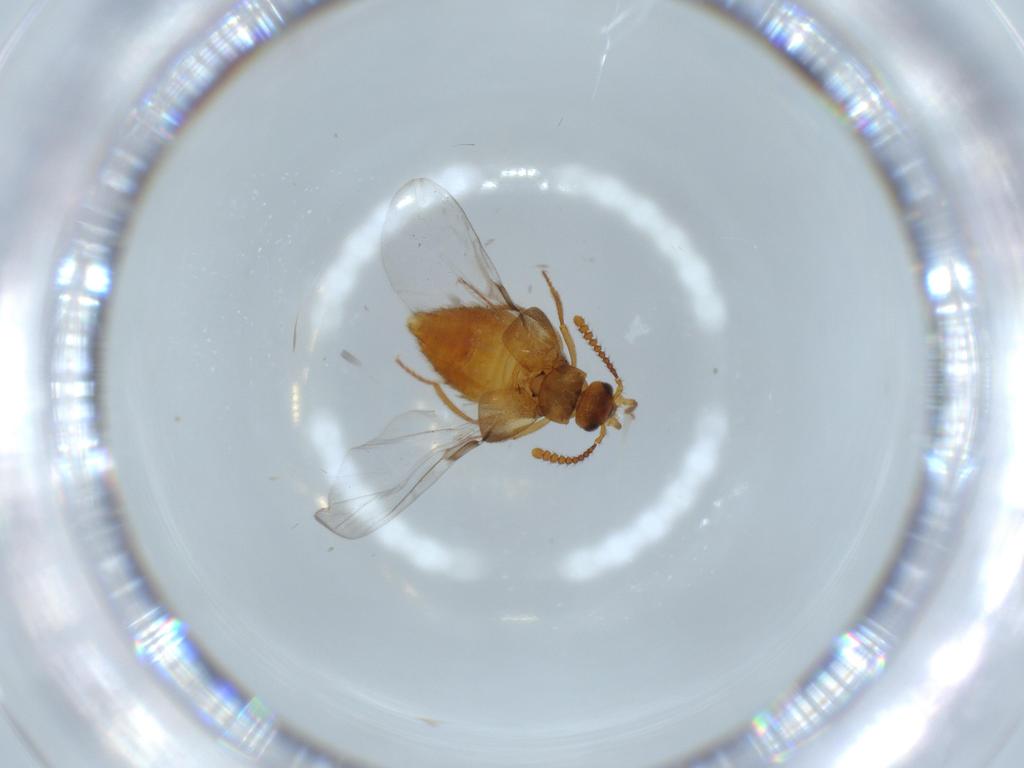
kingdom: Animalia
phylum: Arthropoda
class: Insecta
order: Coleoptera
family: Staphylinidae
